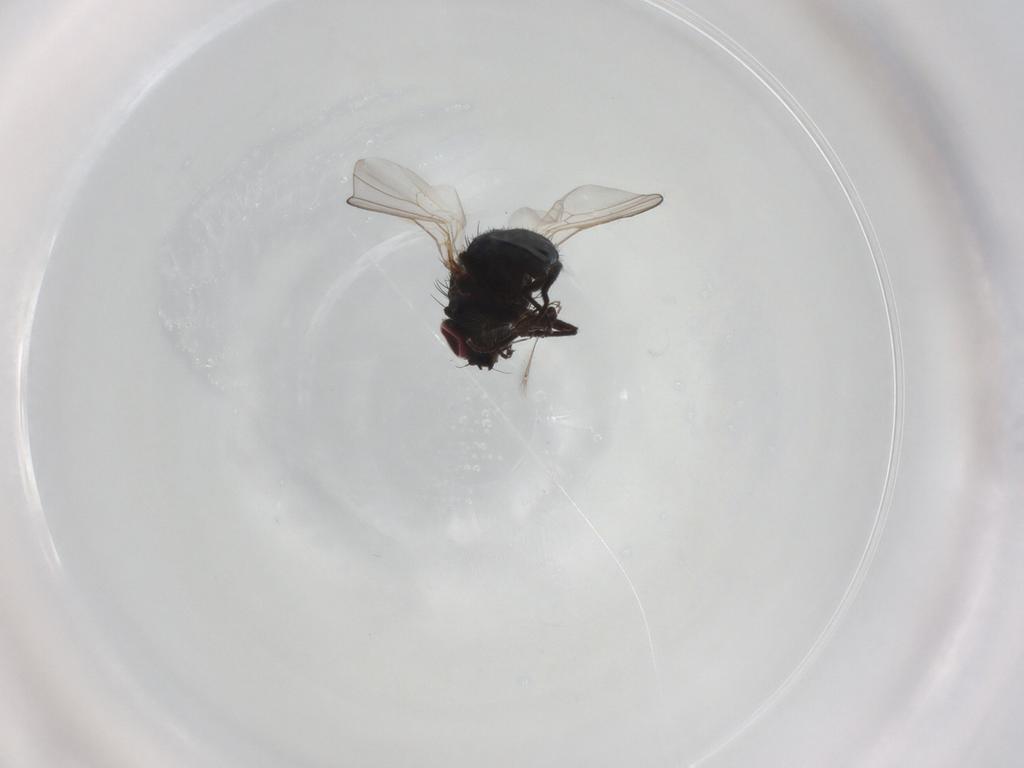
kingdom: Animalia
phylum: Arthropoda
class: Insecta
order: Diptera
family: Agromyzidae
